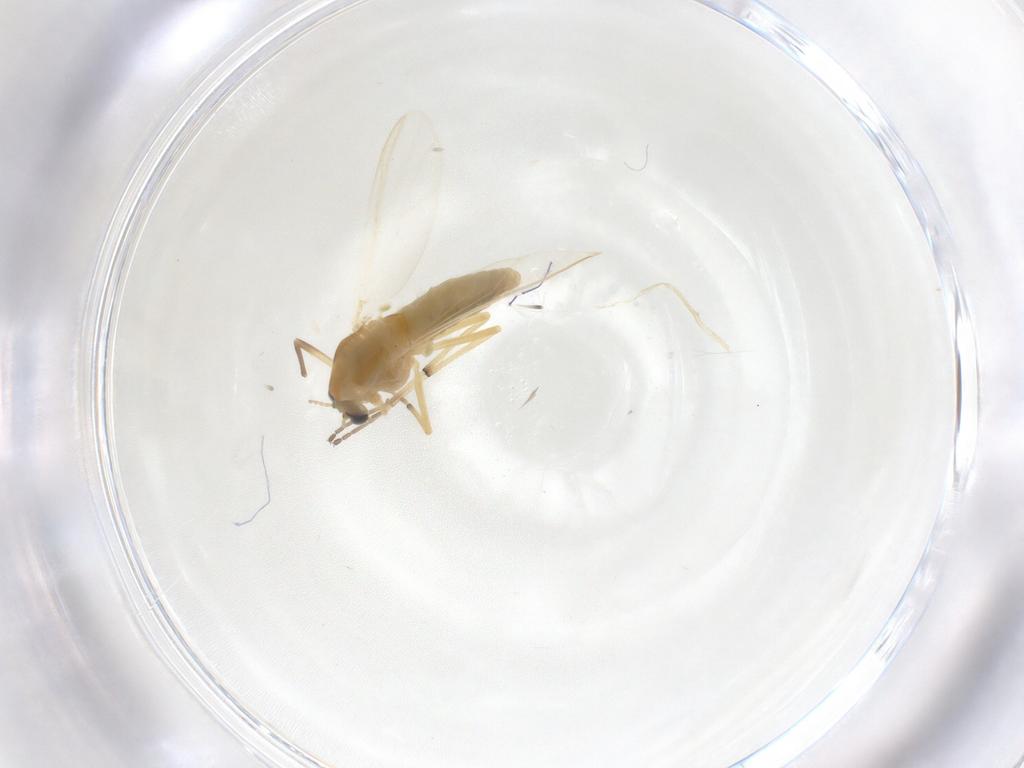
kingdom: Animalia
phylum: Arthropoda
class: Insecta
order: Diptera
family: Chironomidae
